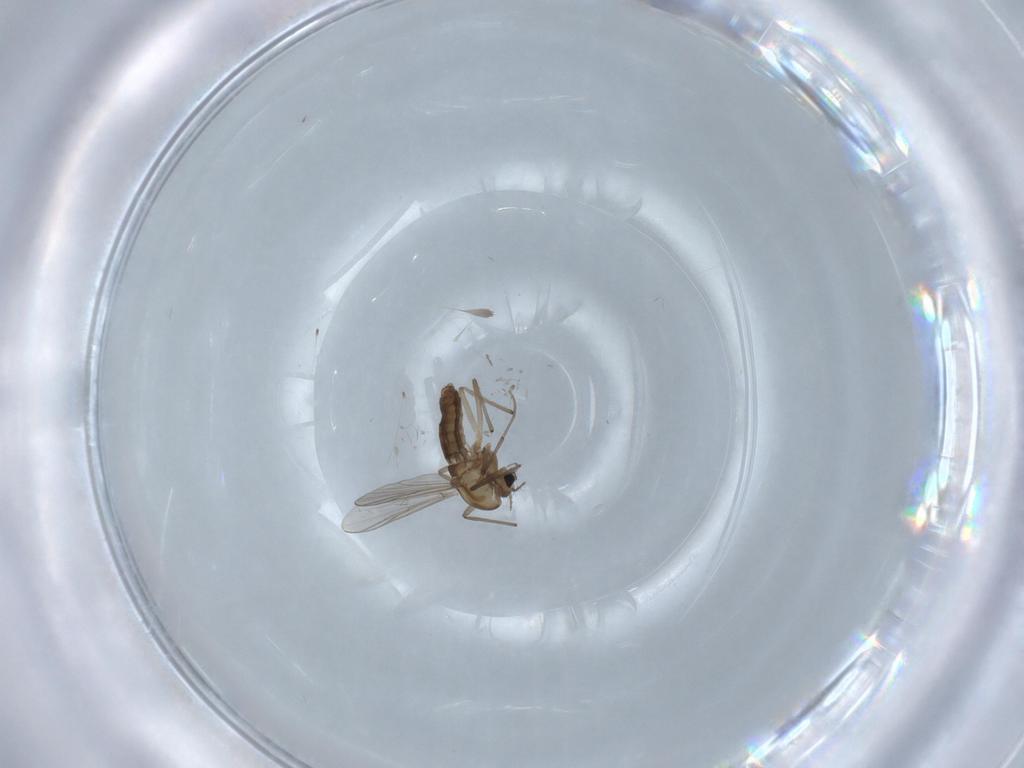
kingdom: Animalia
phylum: Arthropoda
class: Insecta
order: Diptera
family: Chironomidae
